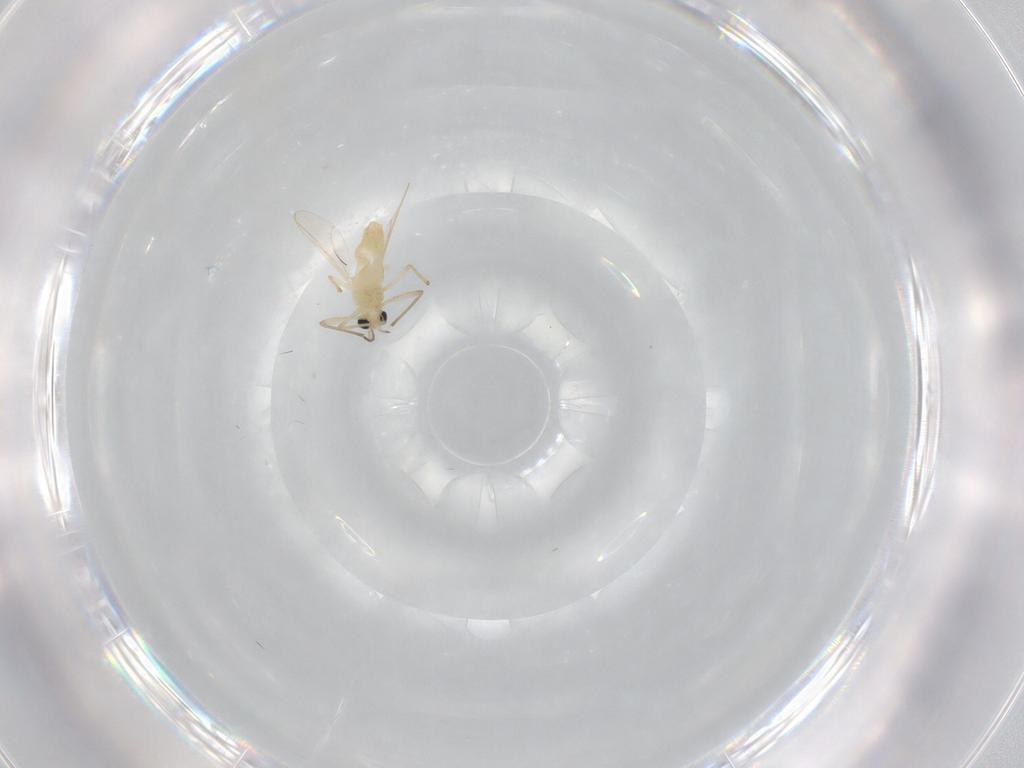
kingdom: Animalia
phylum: Arthropoda
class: Insecta
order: Diptera
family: Chironomidae
